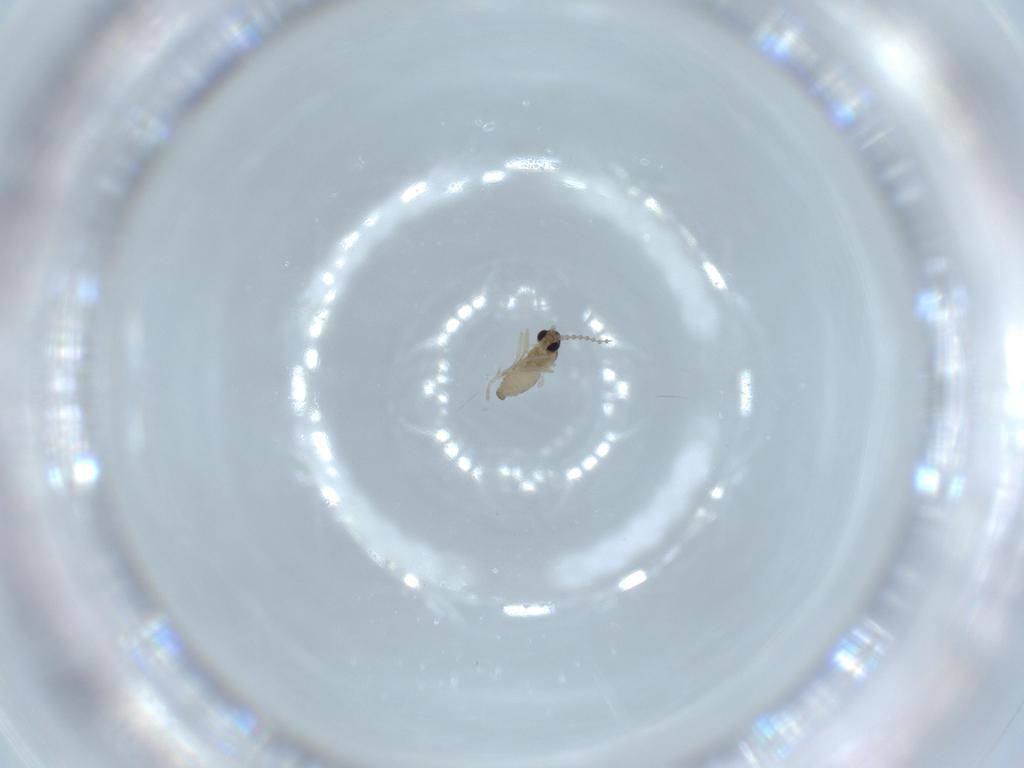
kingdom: Animalia
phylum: Arthropoda
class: Insecta
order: Diptera
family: Cecidomyiidae
